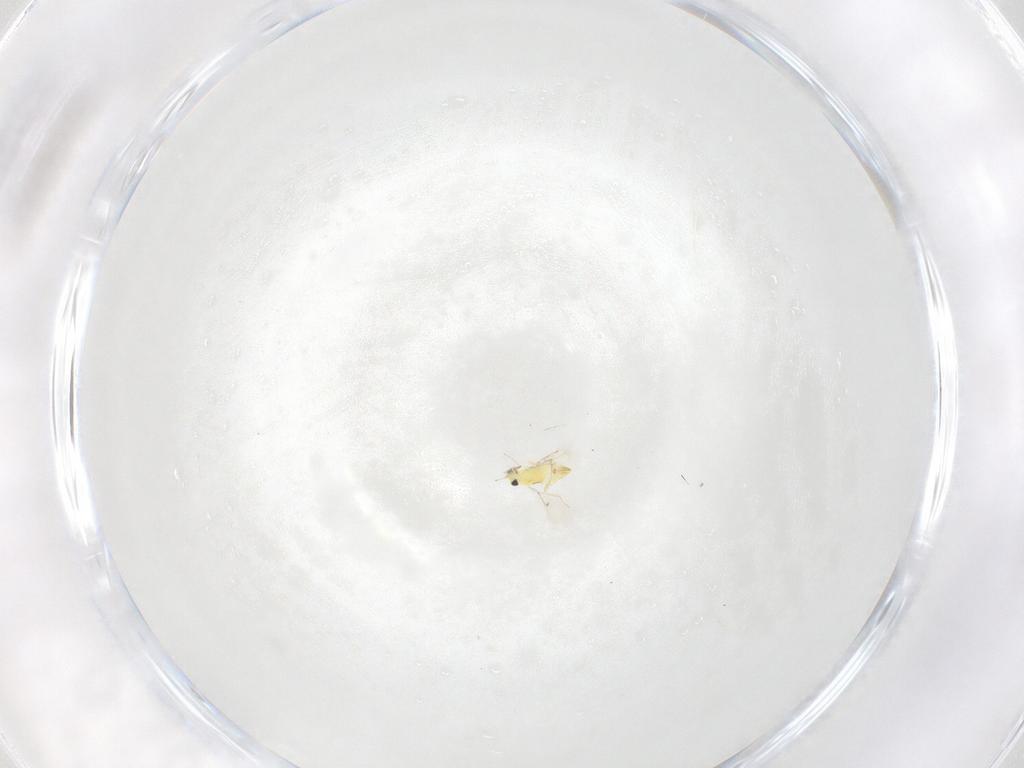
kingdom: Animalia
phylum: Arthropoda
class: Insecta
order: Hymenoptera
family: Trichogrammatidae
